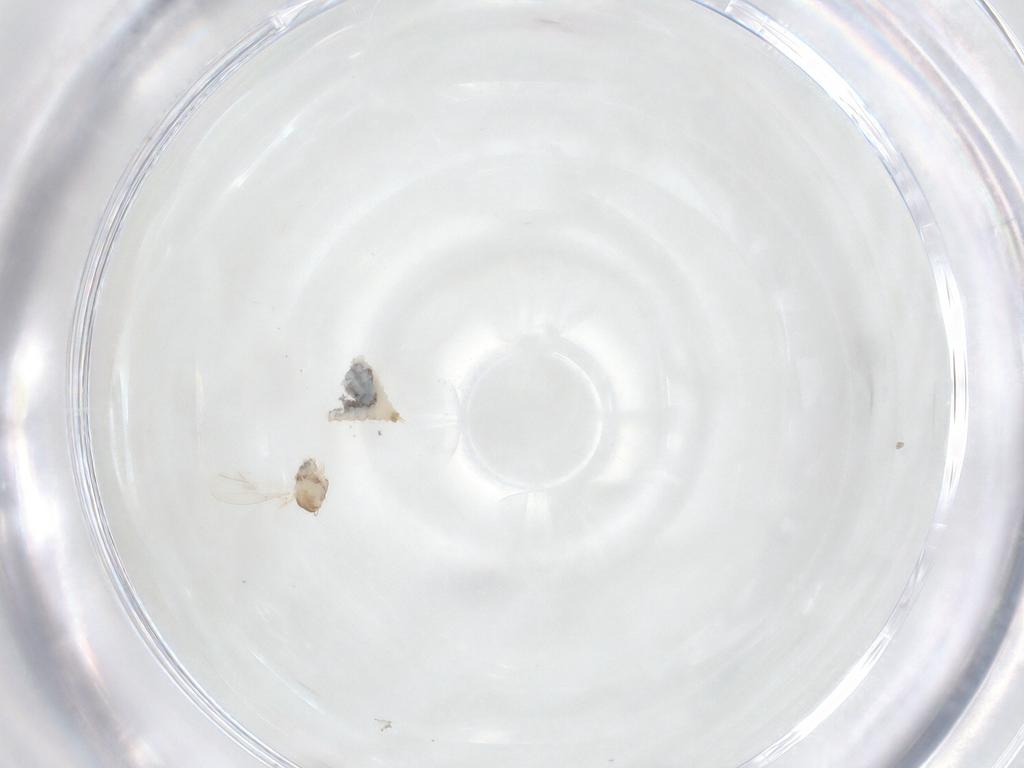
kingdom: Animalia
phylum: Arthropoda
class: Insecta
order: Diptera
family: Cecidomyiidae
